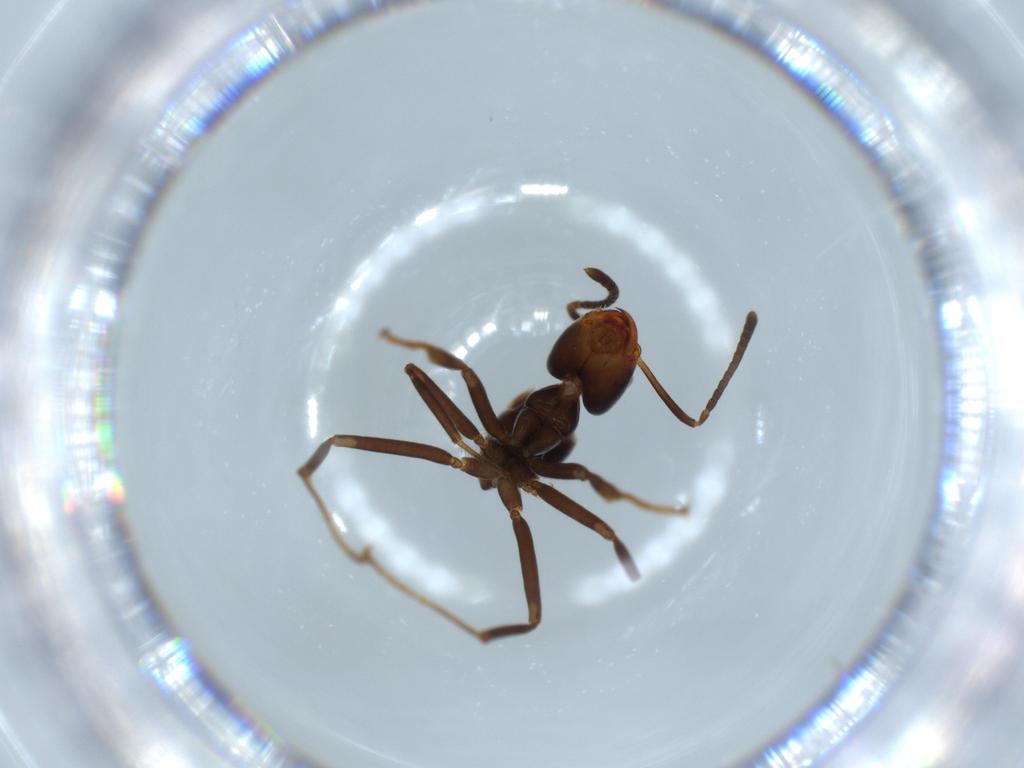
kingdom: Animalia
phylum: Arthropoda
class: Insecta
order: Hymenoptera
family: Formicidae
